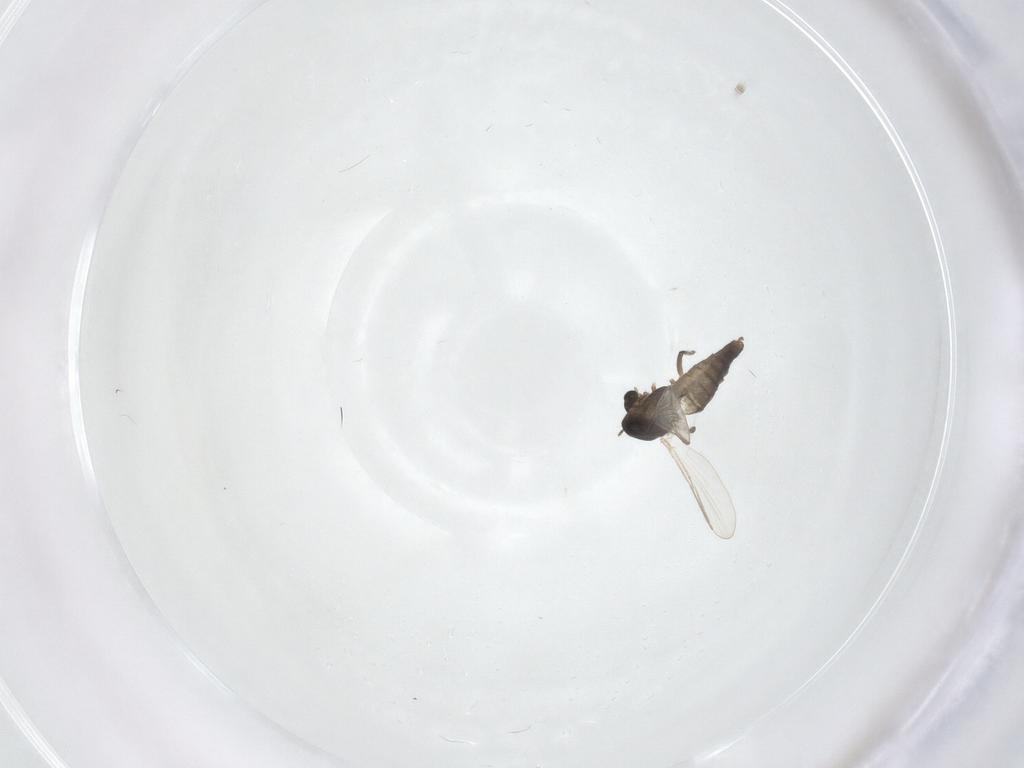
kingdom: Animalia
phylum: Arthropoda
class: Insecta
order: Diptera
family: Chironomidae
